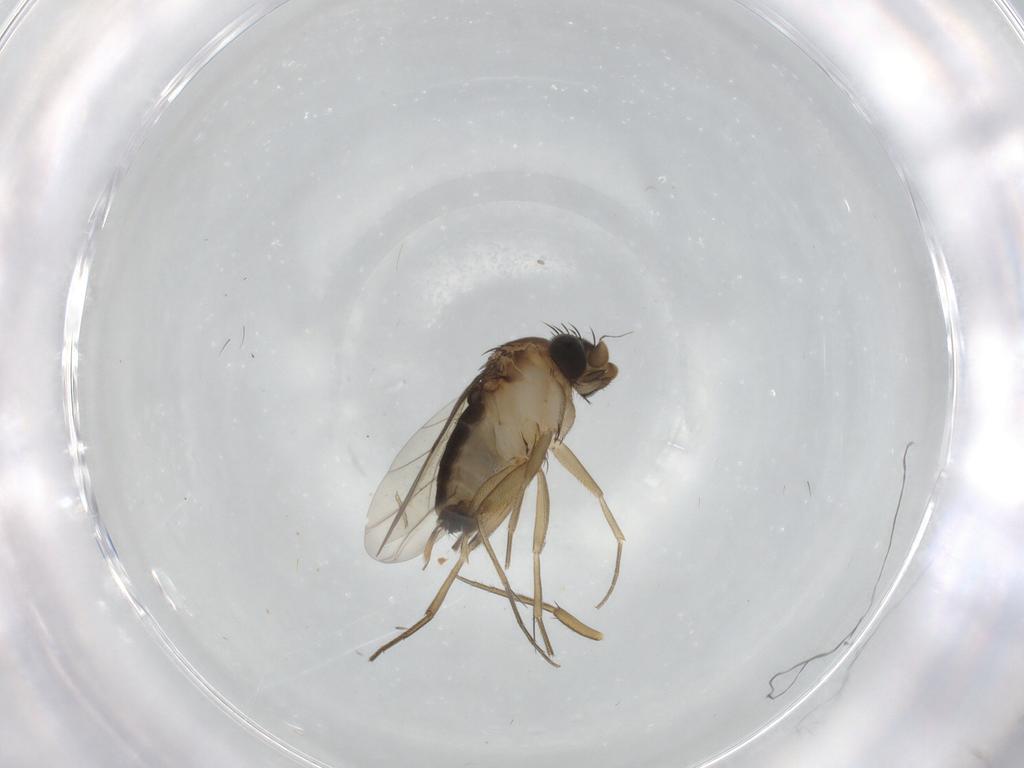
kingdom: Animalia
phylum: Arthropoda
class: Insecta
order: Diptera
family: Phoridae
